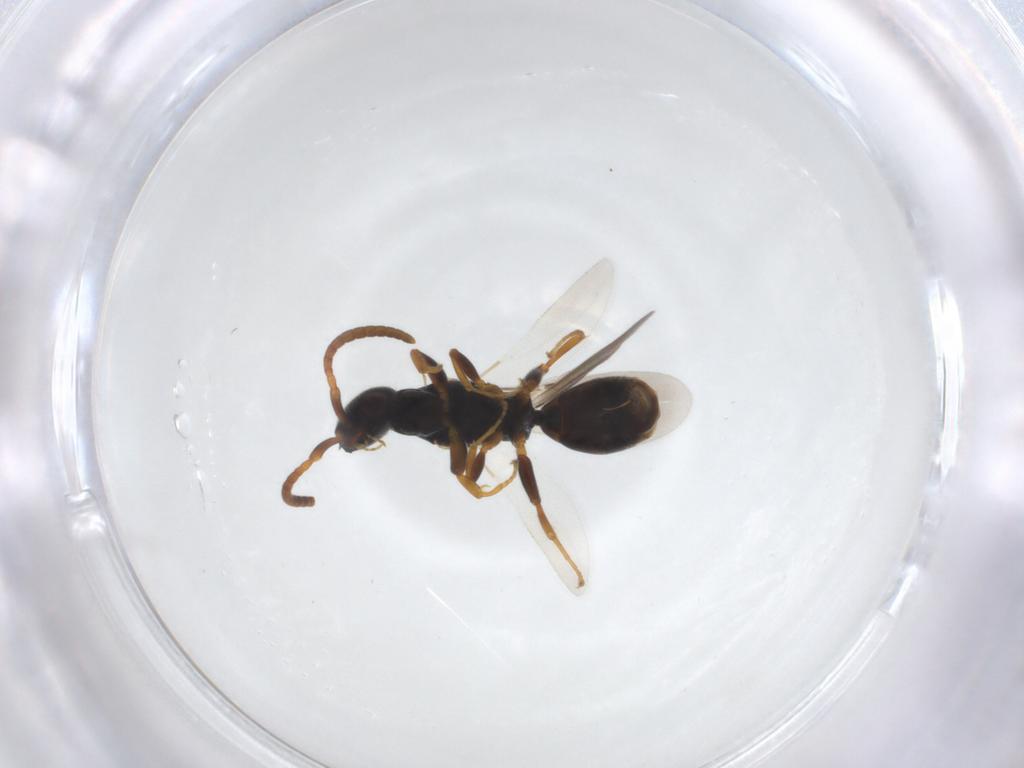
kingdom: Animalia
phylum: Arthropoda
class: Insecta
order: Hymenoptera
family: Bethylidae
